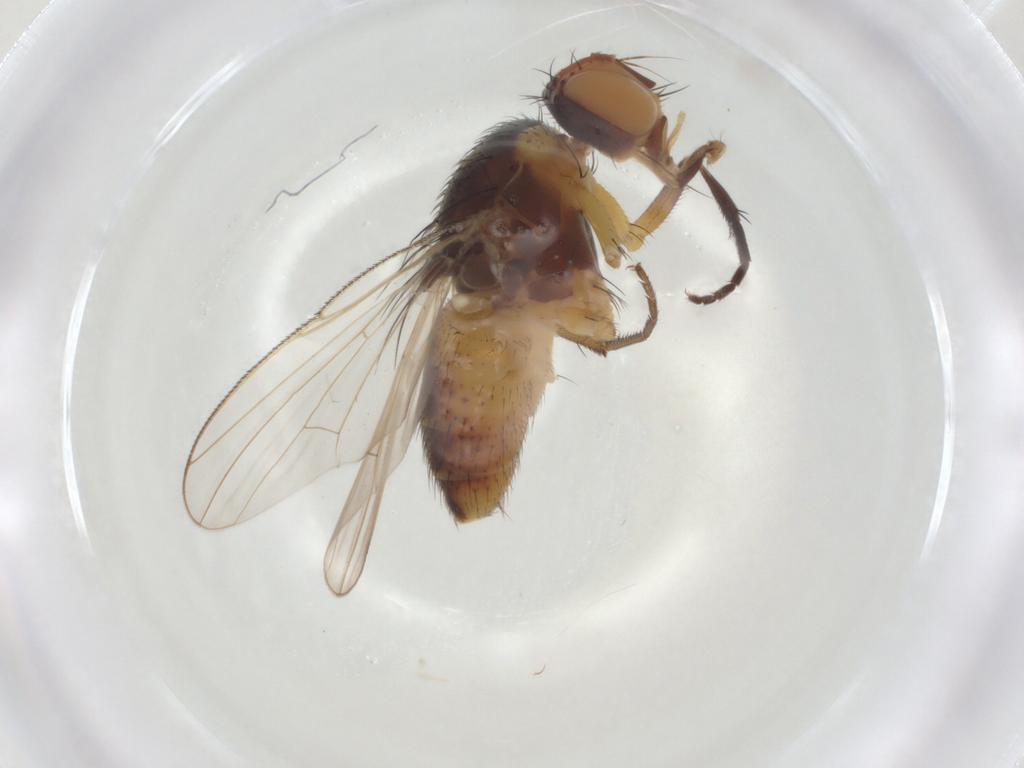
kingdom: Animalia
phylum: Arthropoda
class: Insecta
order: Diptera
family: Muscidae
